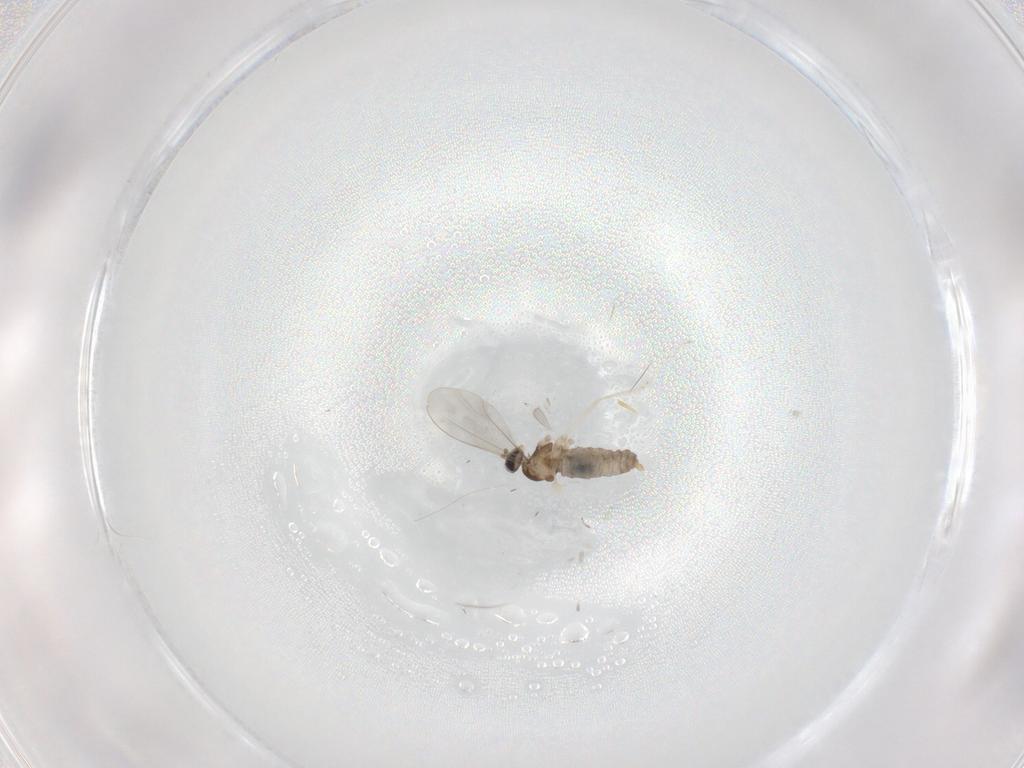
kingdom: Animalia
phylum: Arthropoda
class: Insecta
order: Diptera
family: Cecidomyiidae
